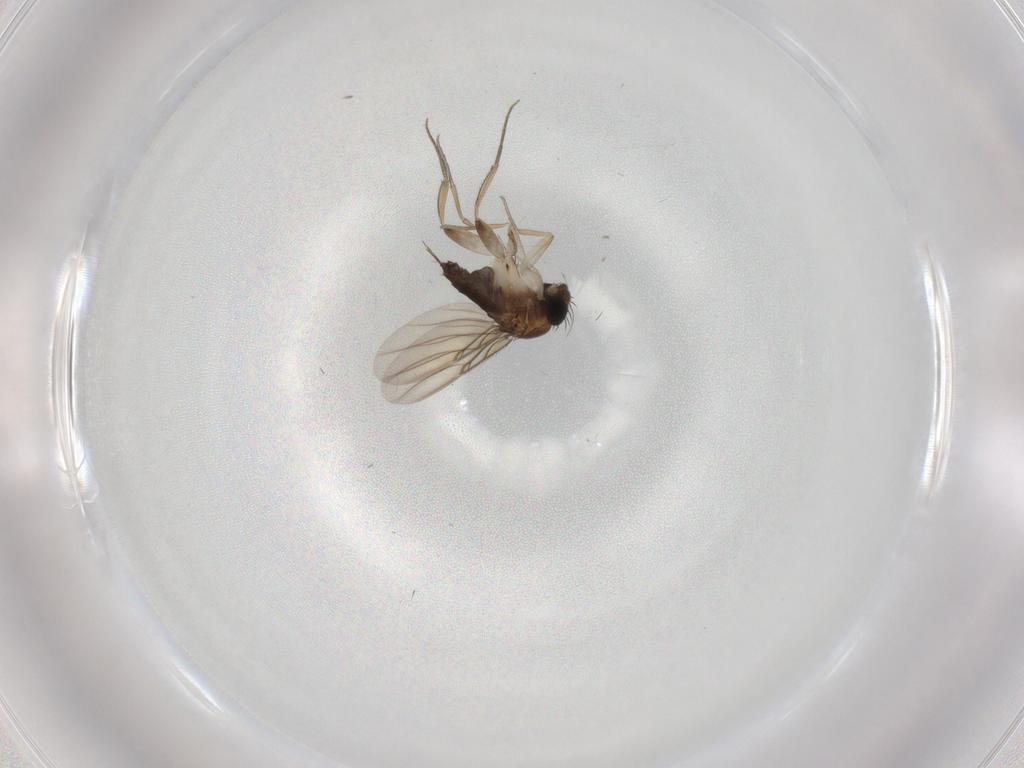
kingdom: Animalia
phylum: Arthropoda
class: Insecta
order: Diptera
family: Phoridae
